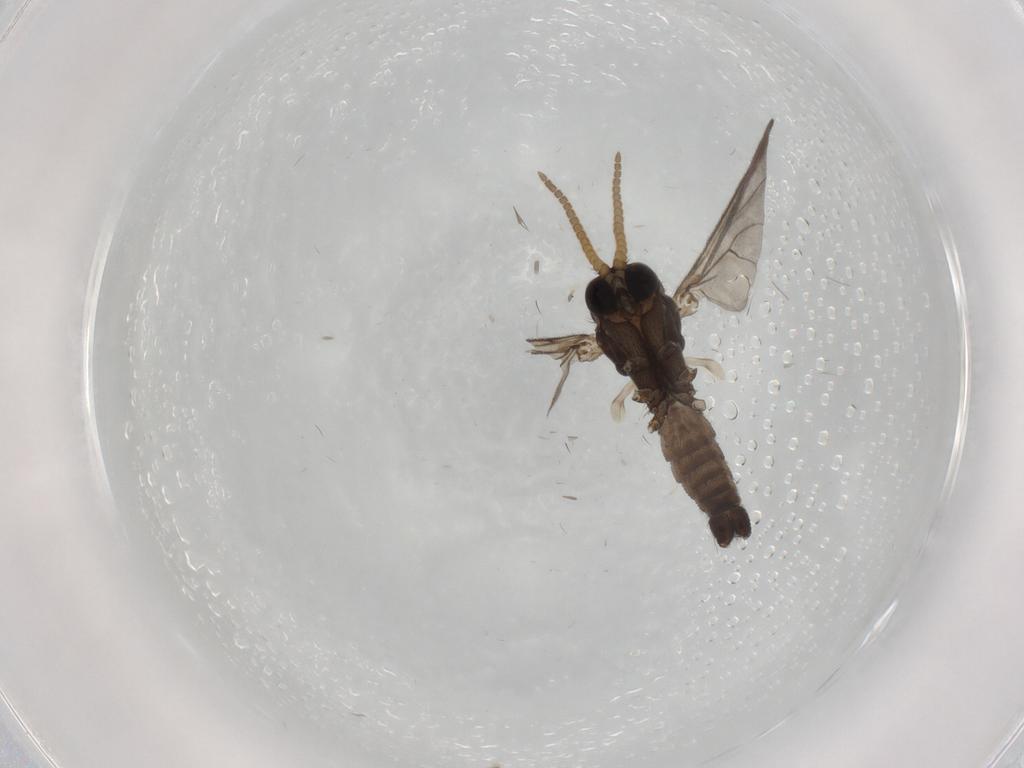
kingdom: Animalia
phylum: Arthropoda
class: Insecta
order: Diptera
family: Mycetophilidae
